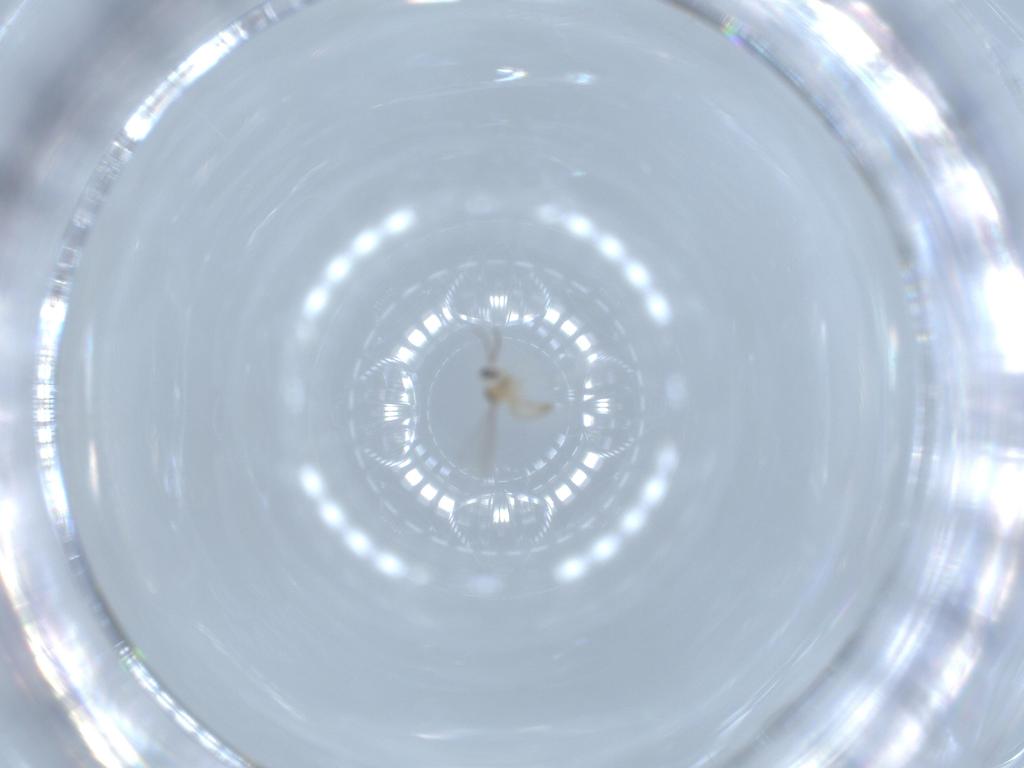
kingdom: Animalia
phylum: Arthropoda
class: Insecta
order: Diptera
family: Cecidomyiidae
